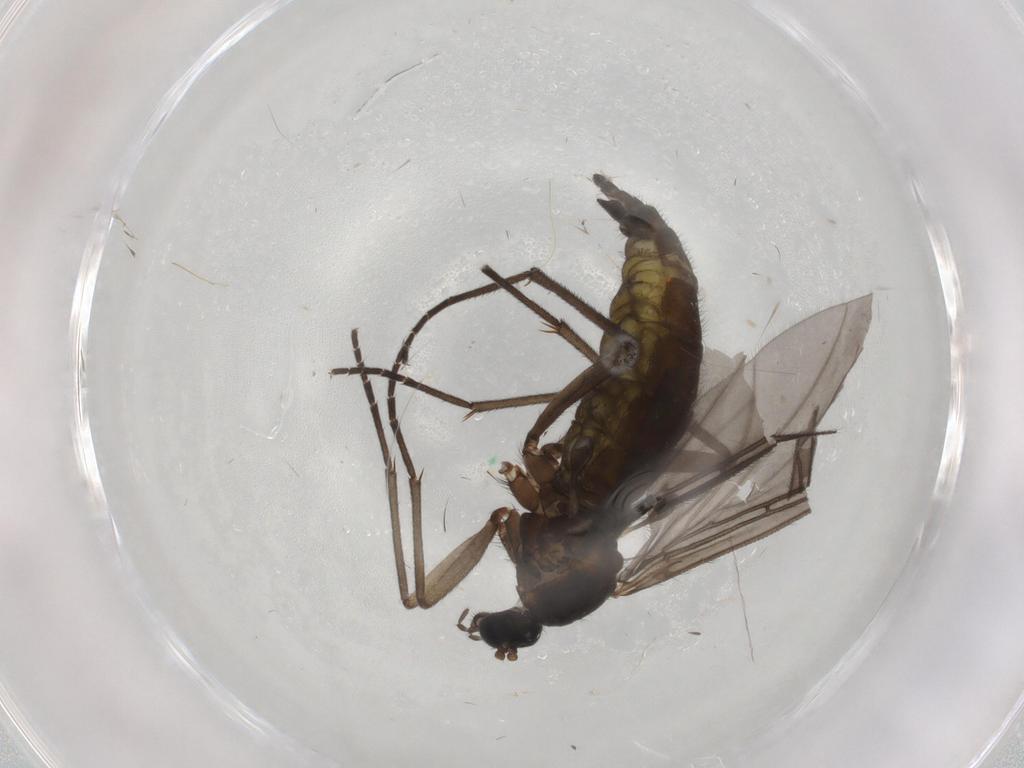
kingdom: Animalia
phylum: Arthropoda
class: Insecta
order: Diptera
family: Sciaridae
